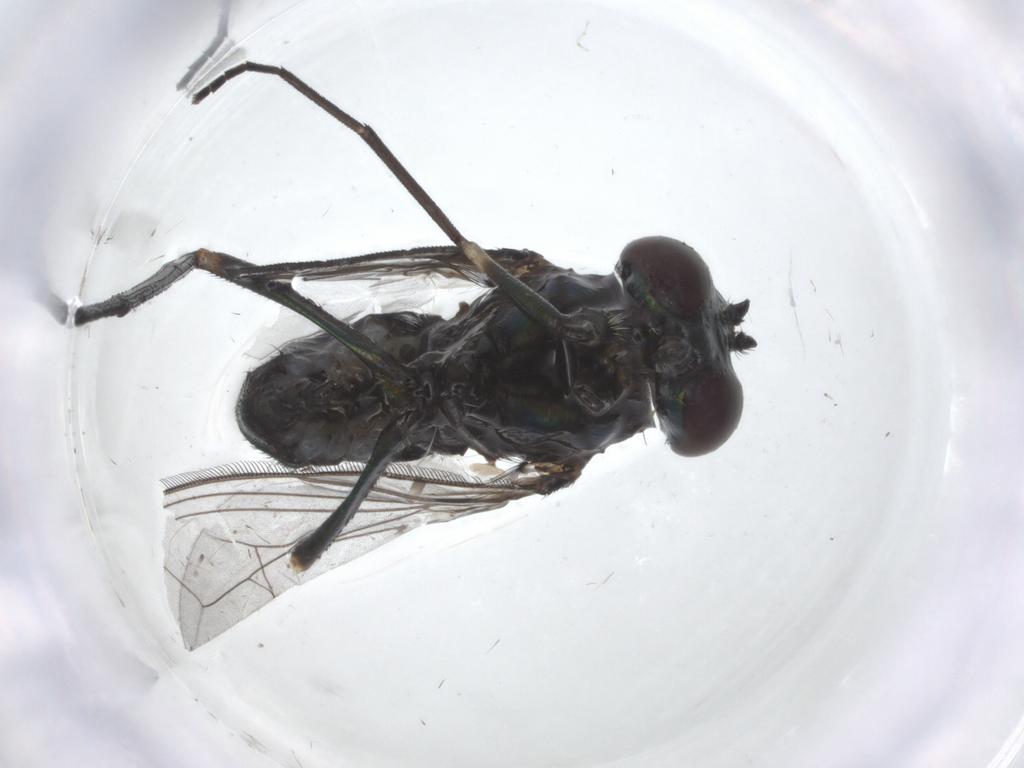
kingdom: Animalia
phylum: Arthropoda
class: Insecta
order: Diptera
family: Dolichopodidae
